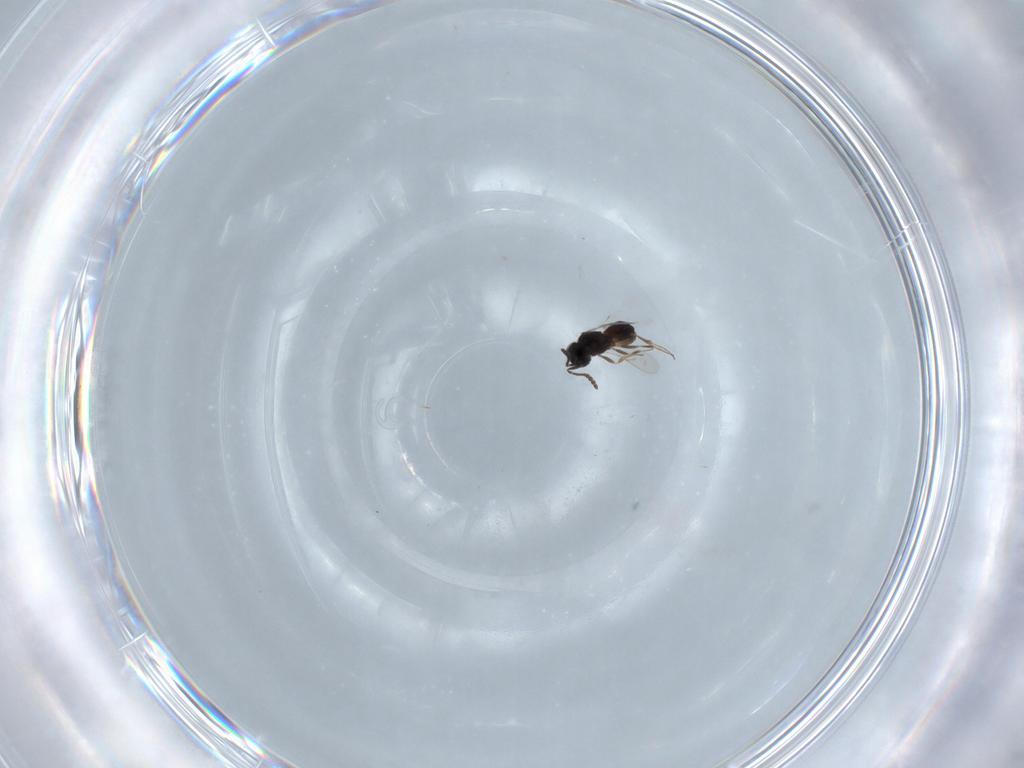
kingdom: Animalia
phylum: Arthropoda
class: Insecta
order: Hymenoptera
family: Scelionidae
